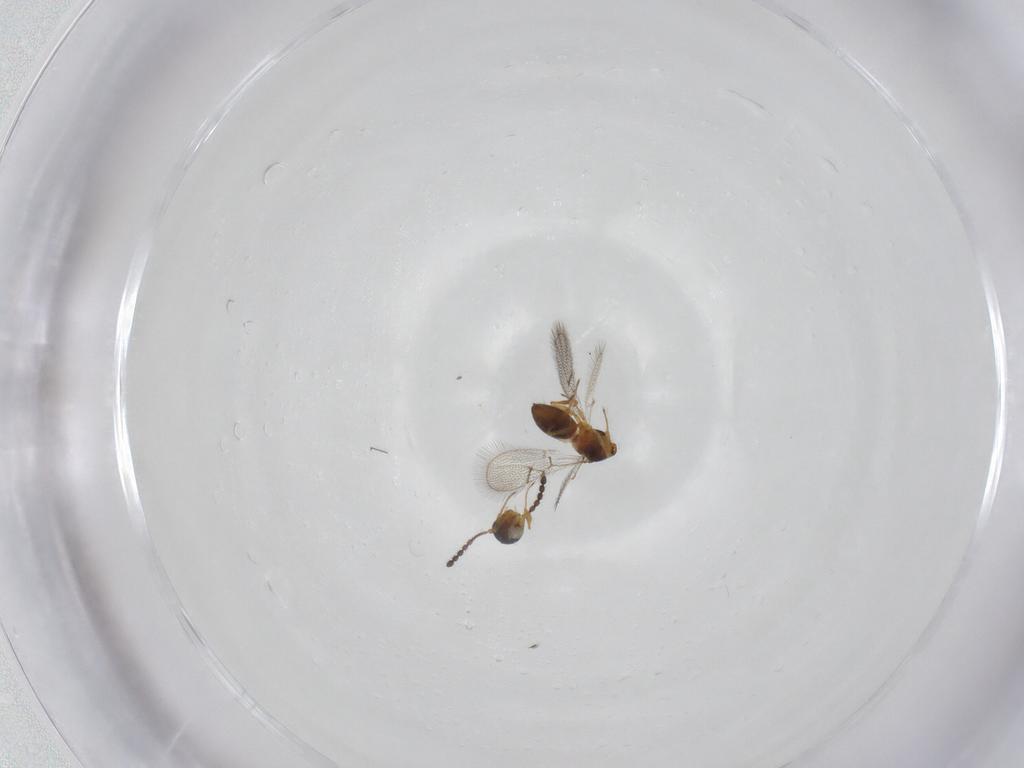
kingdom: Animalia
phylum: Arthropoda
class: Insecta
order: Hymenoptera
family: Figitidae
